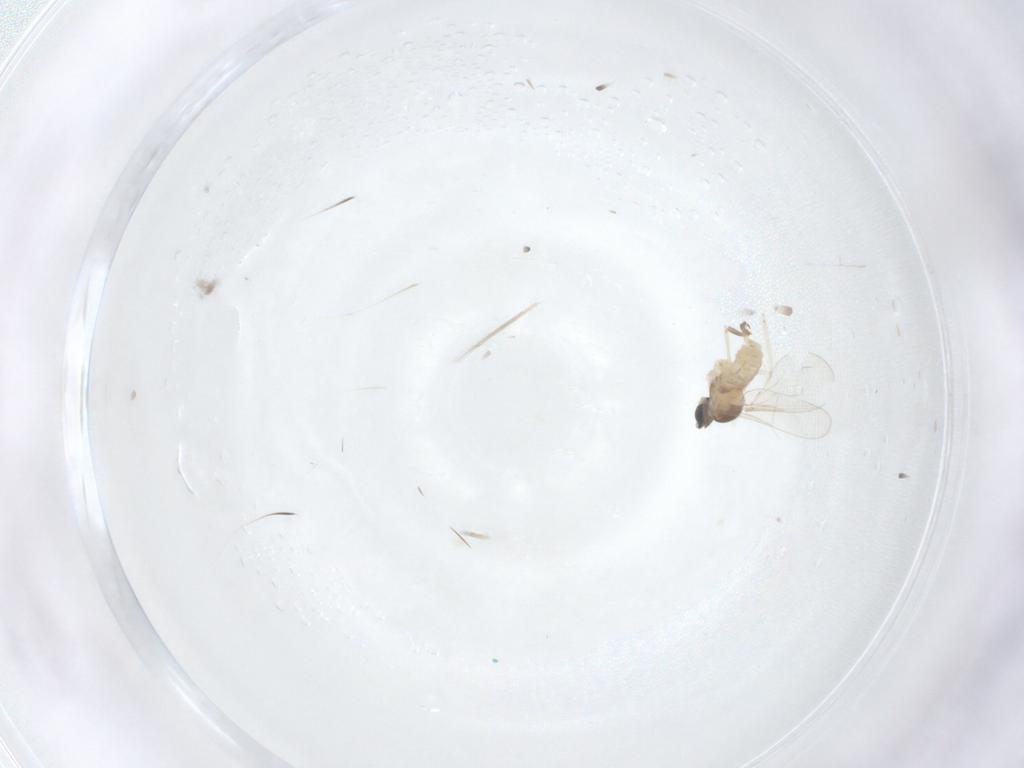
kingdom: Animalia
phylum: Arthropoda
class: Insecta
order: Diptera
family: Cecidomyiidae
